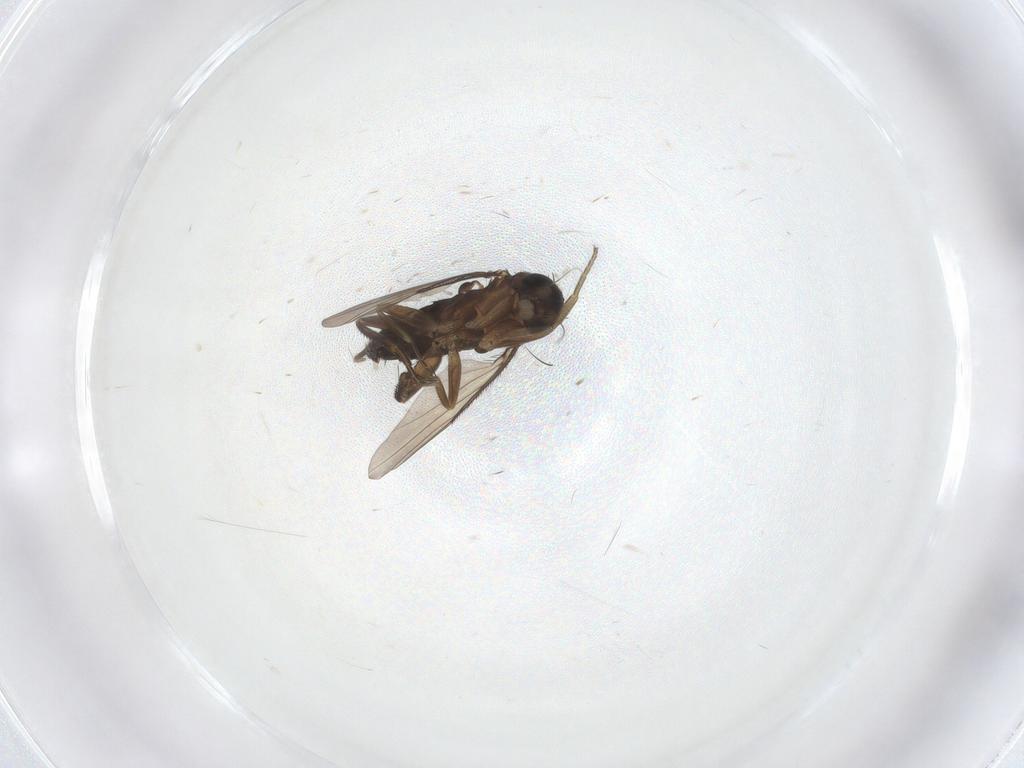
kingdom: Animalia
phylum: Arthropoda
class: Insecta
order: Diptera
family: Phoridae
